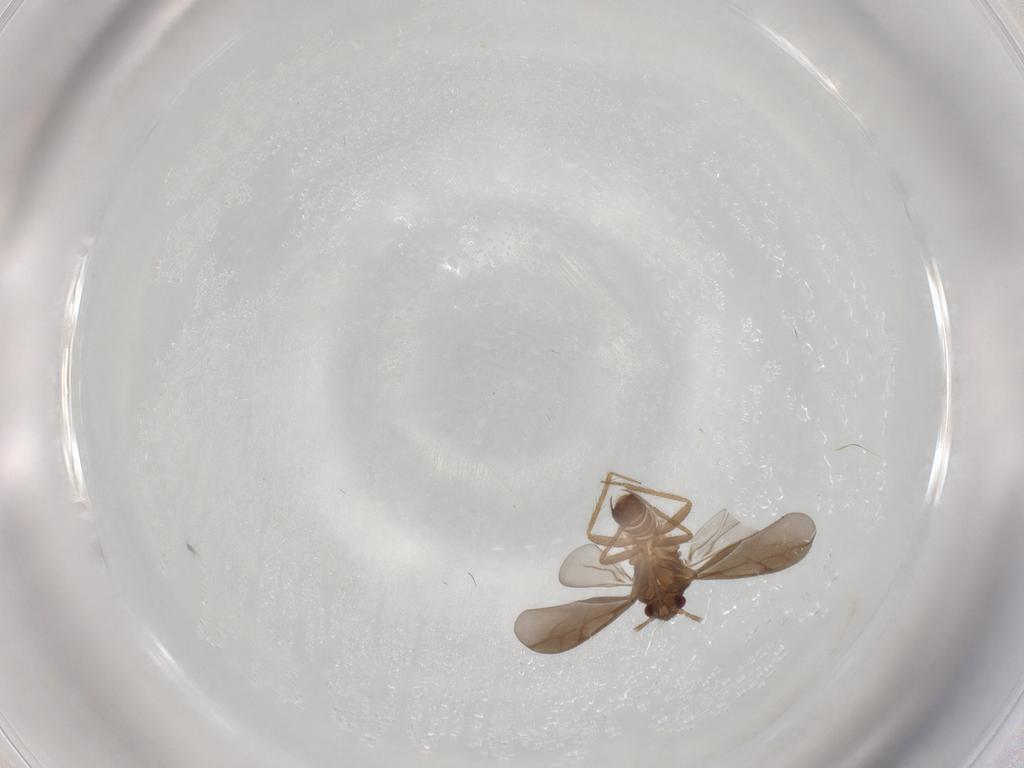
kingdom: Animalia
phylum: Arthropoda
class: Insecta
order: Hemiptera
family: Ceratocombidae
